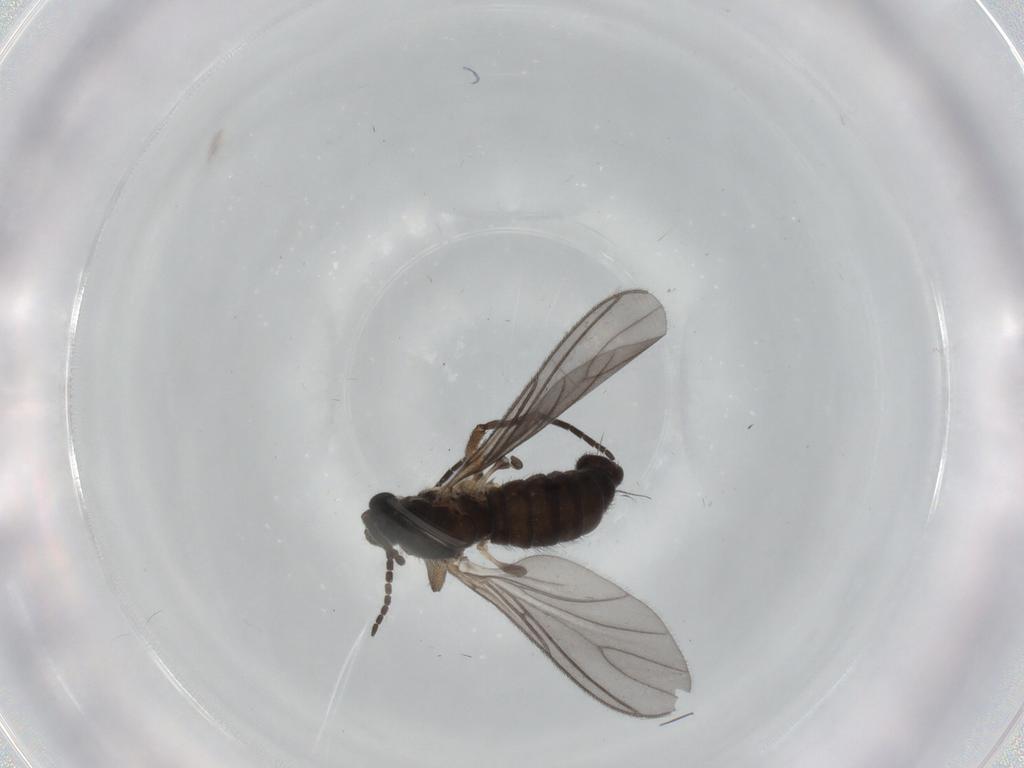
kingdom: Animalia
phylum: Arthropoda
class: Insecta
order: Diptera
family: Sciaridae
